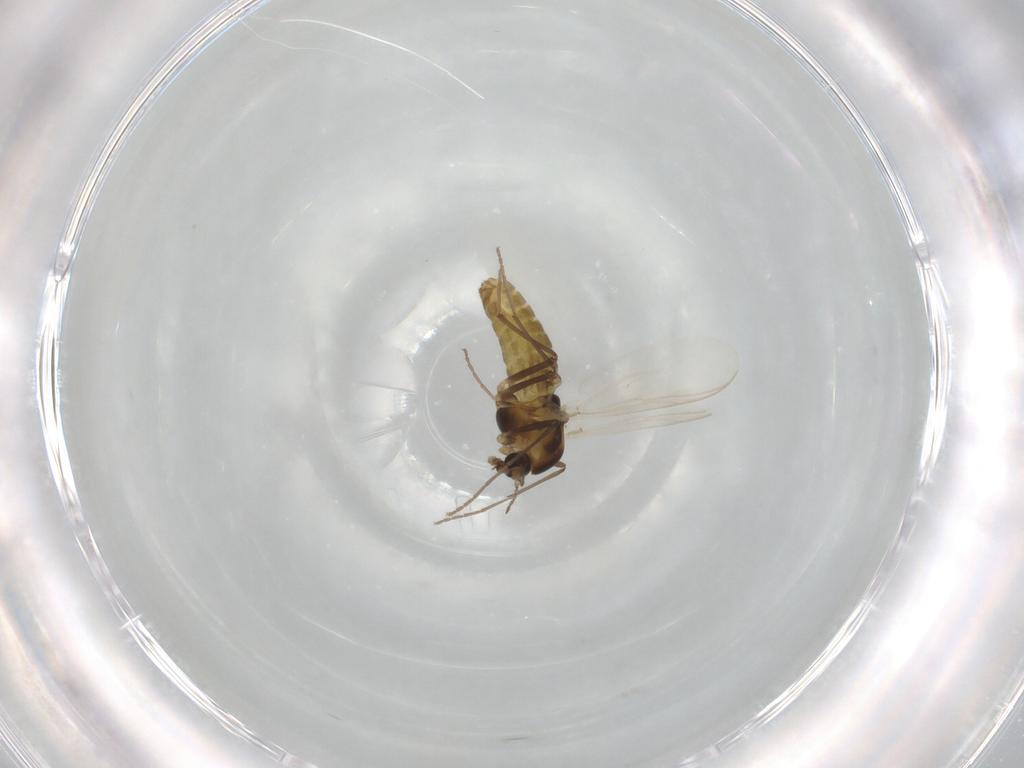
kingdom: Animalia
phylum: Arthropoda
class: Insecta
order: Diptera
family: Chironomidae
